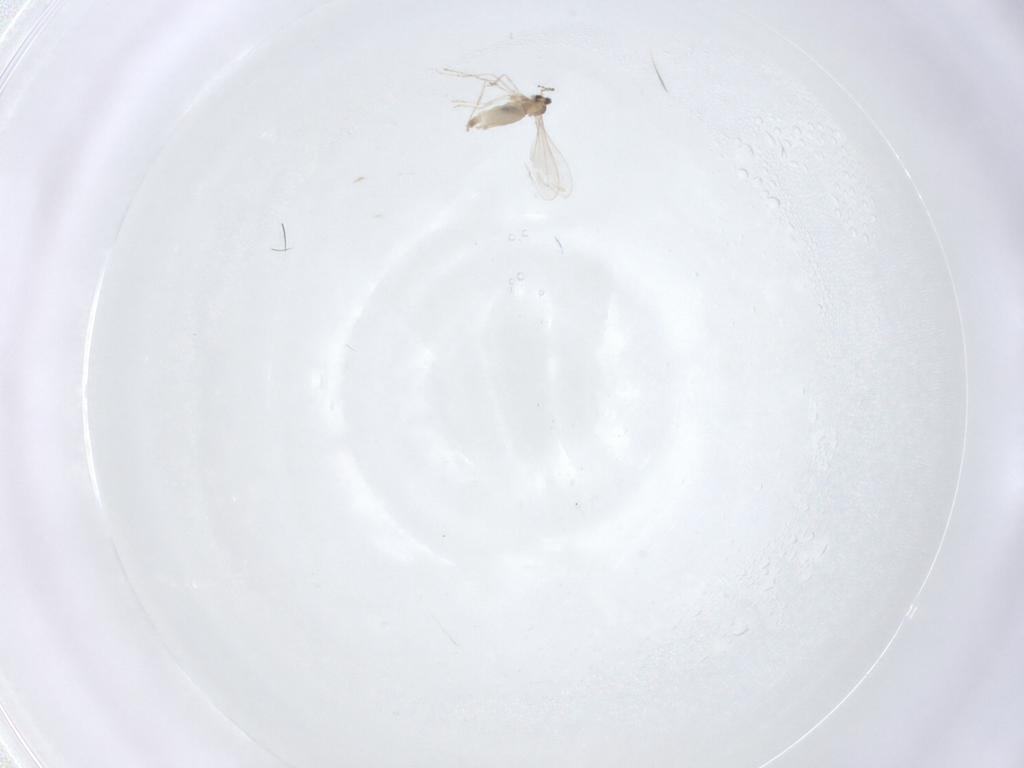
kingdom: Animalia
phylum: Arthropoda
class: Insecta
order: Diptera
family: Cecidomyiidae
